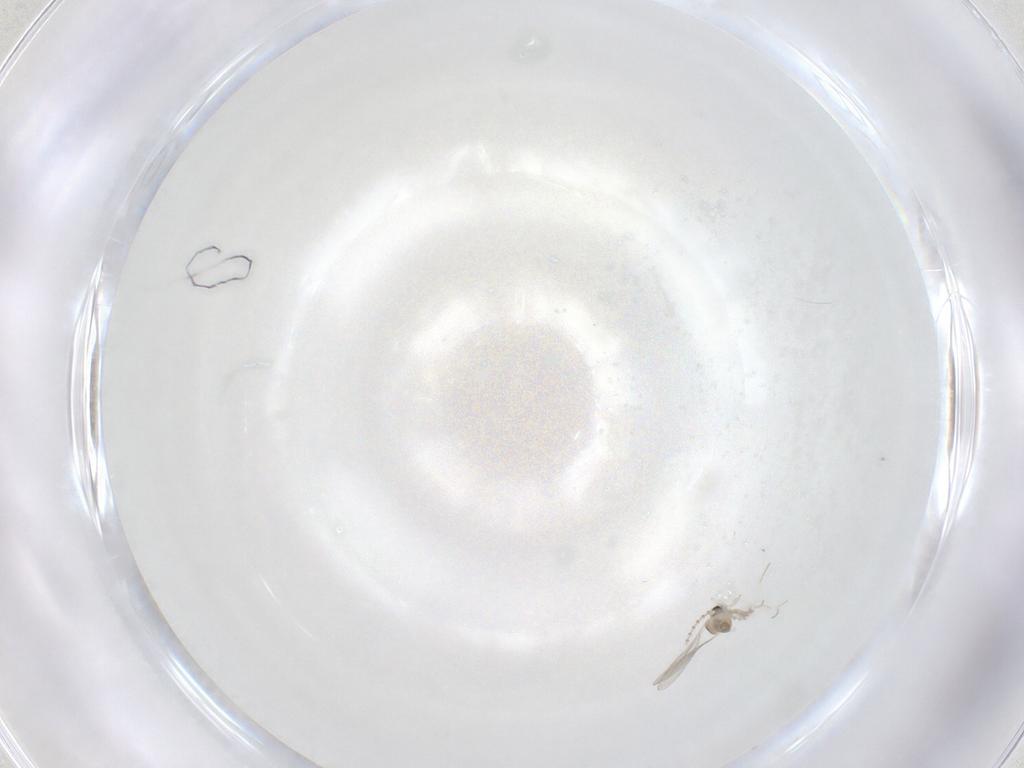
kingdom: Animalia
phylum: Arthropoda
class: Insecta
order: Diptera
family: Cecidomyiidae
